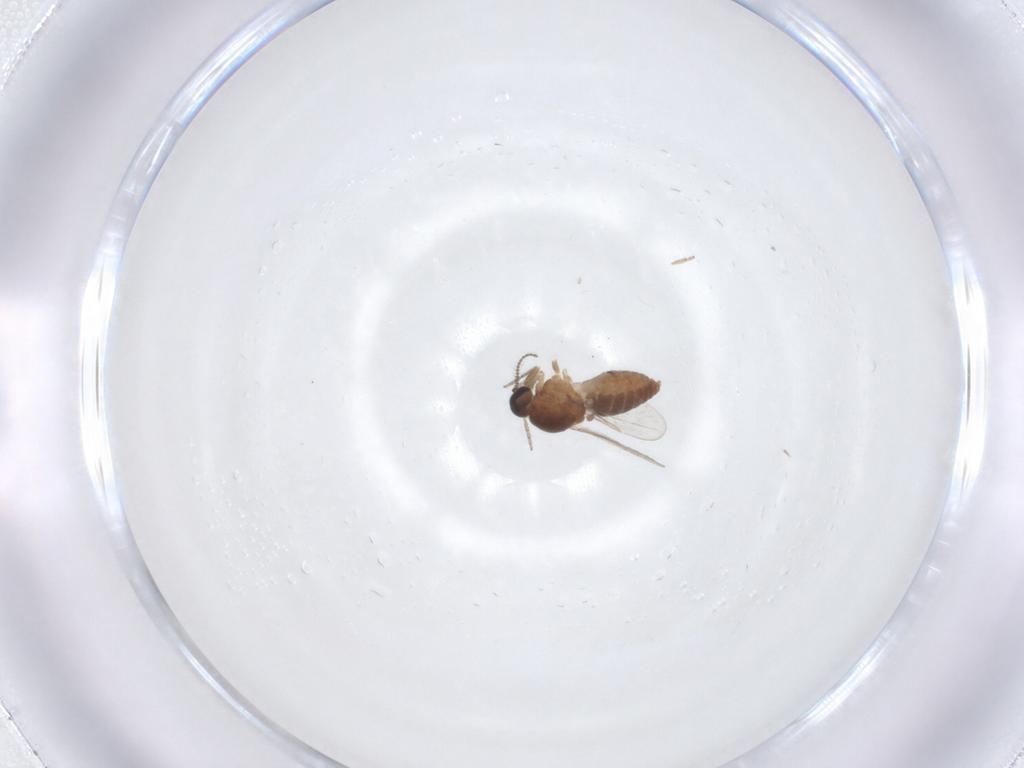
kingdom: Animalia
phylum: Arthropoda
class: Insecta
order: Diptera
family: Ceratopogonidae
